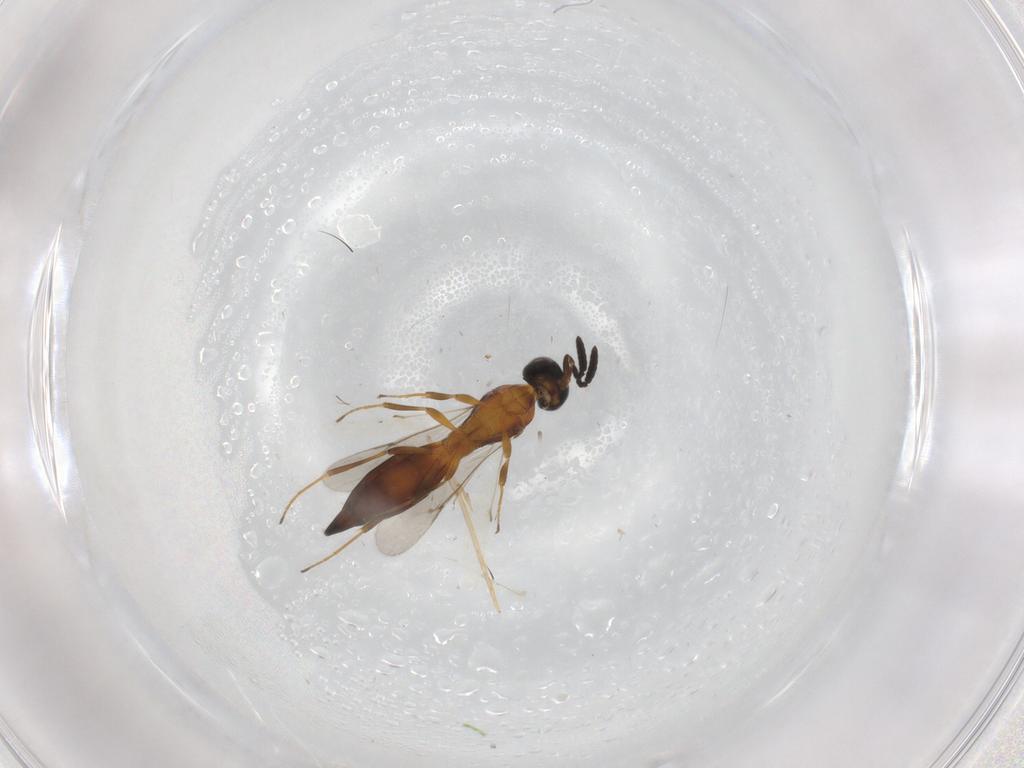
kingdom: Animalia
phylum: Arthropoda
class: Insecta
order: Hymenoptera
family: Scelionidae
